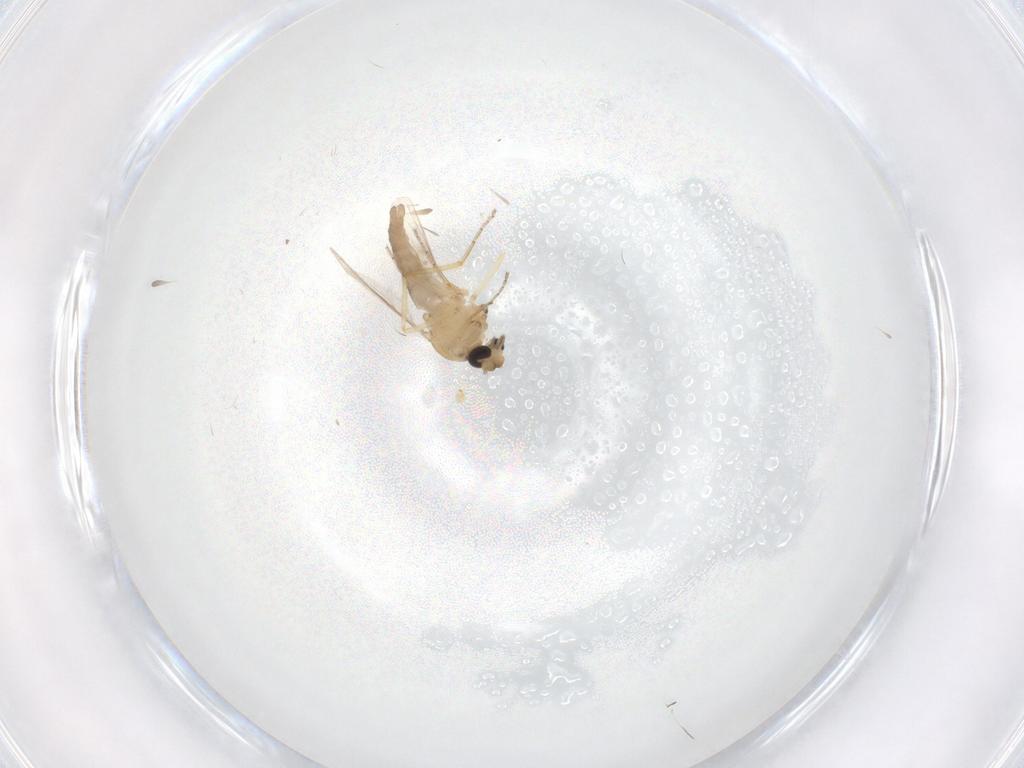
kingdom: Animalia
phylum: Arthropoda
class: Insecta
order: Diptera
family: Ceratopogonidae
